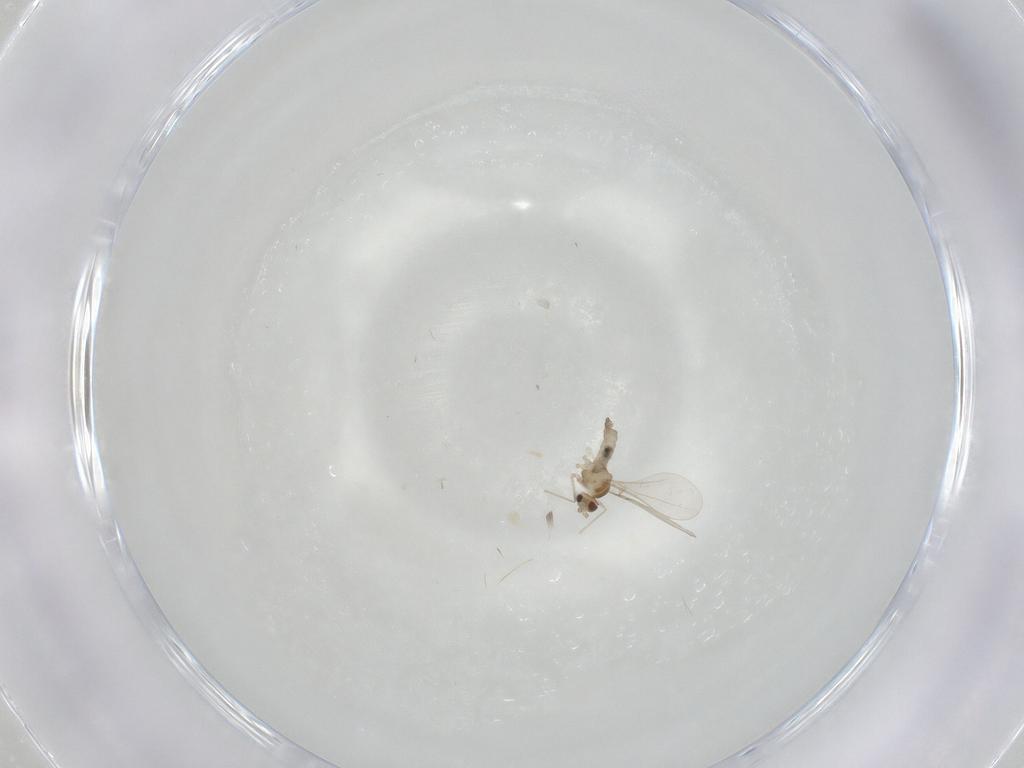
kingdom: Animalia
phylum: Arthropoda
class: Insecta
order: Diptera
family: Cecidomyiidae
